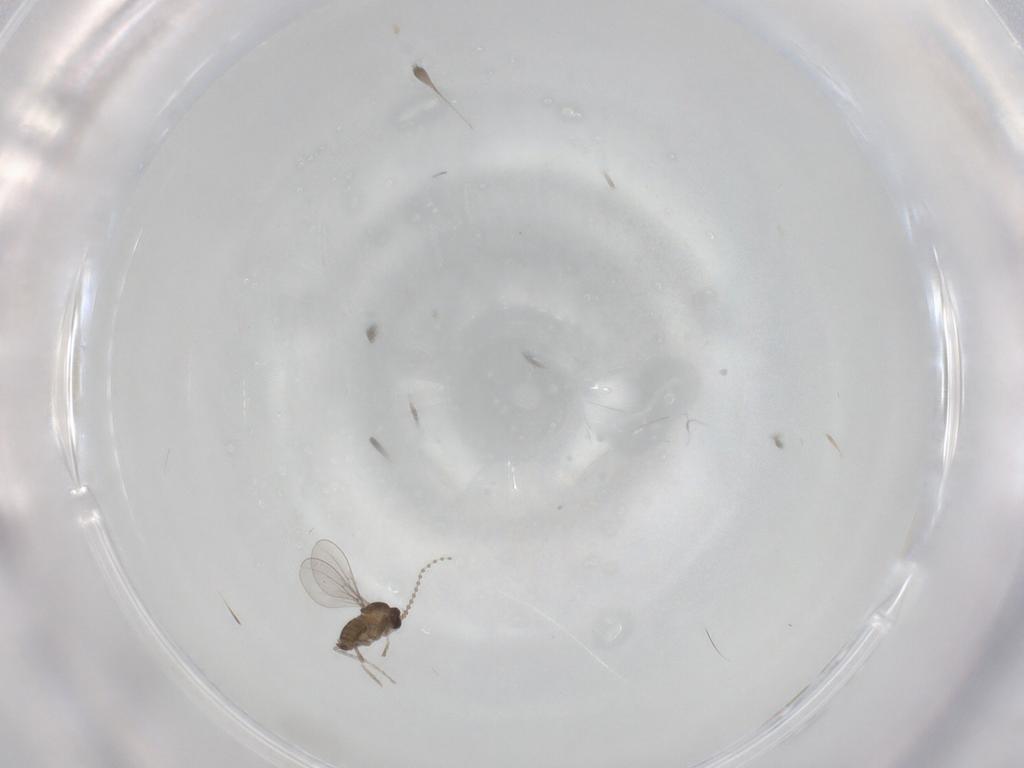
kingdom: Animalia
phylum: Arthropoda
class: Insecta
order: Diptera
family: Cecidomyiidae
